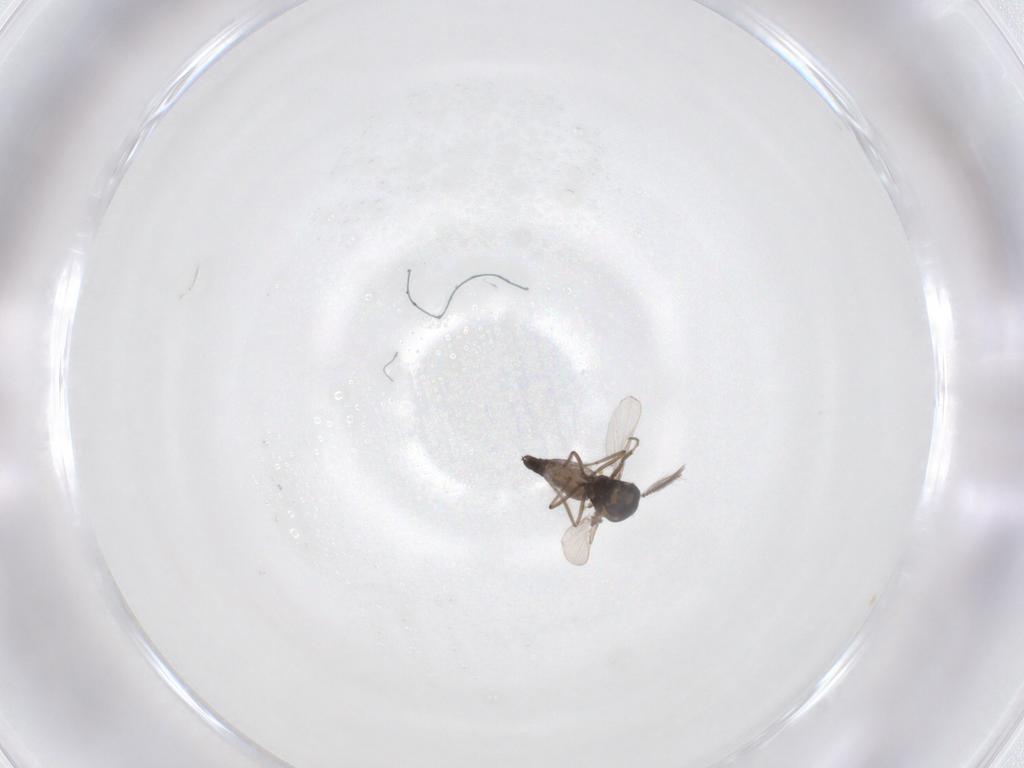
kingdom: Animalia
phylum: Arthropoda
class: Insecta
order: Diptera
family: Ceratopogonidae
